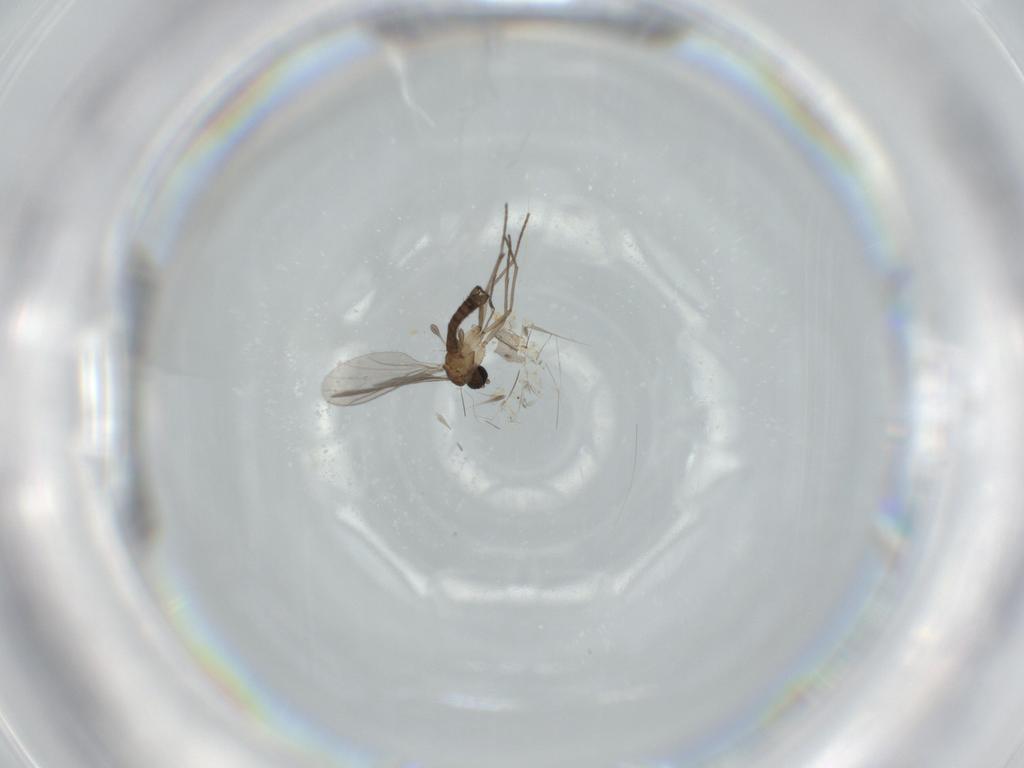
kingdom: Animalia
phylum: Arthropoda
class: Insecta
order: Diptera
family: Sciaridae
